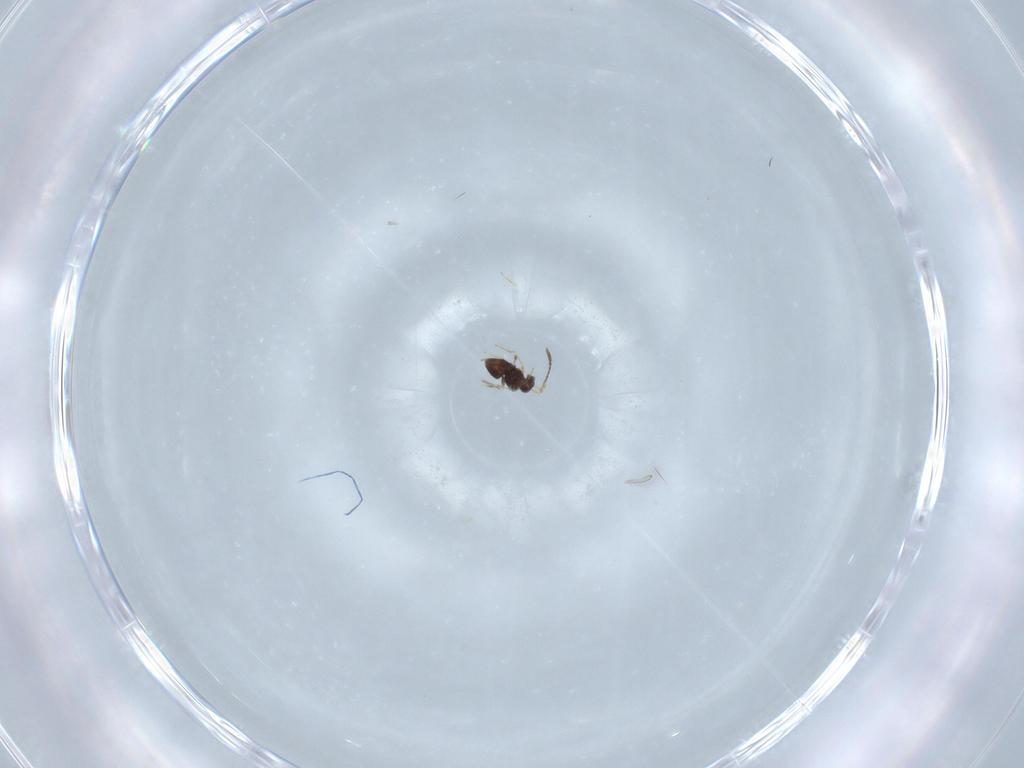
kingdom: Animalia
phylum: Arthropoda
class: Insecta
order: Hymenoptera
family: Mymaridae
